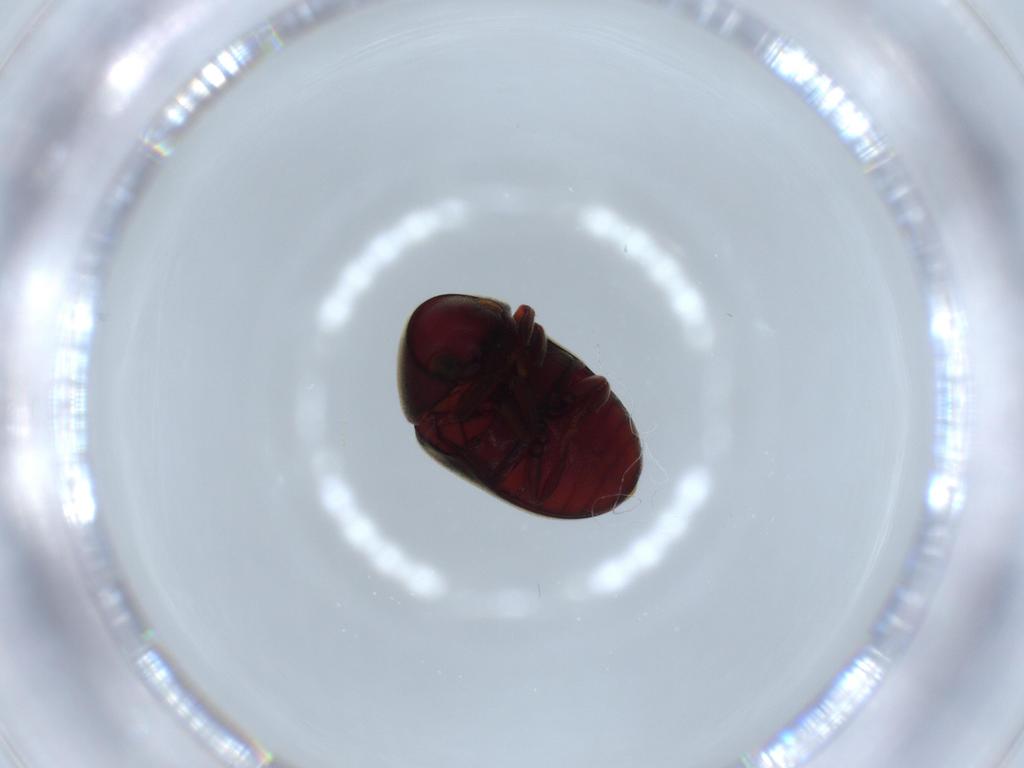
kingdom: Animalia
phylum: Arthropoda
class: Insecta
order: Coleoptera
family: Ptinidae
